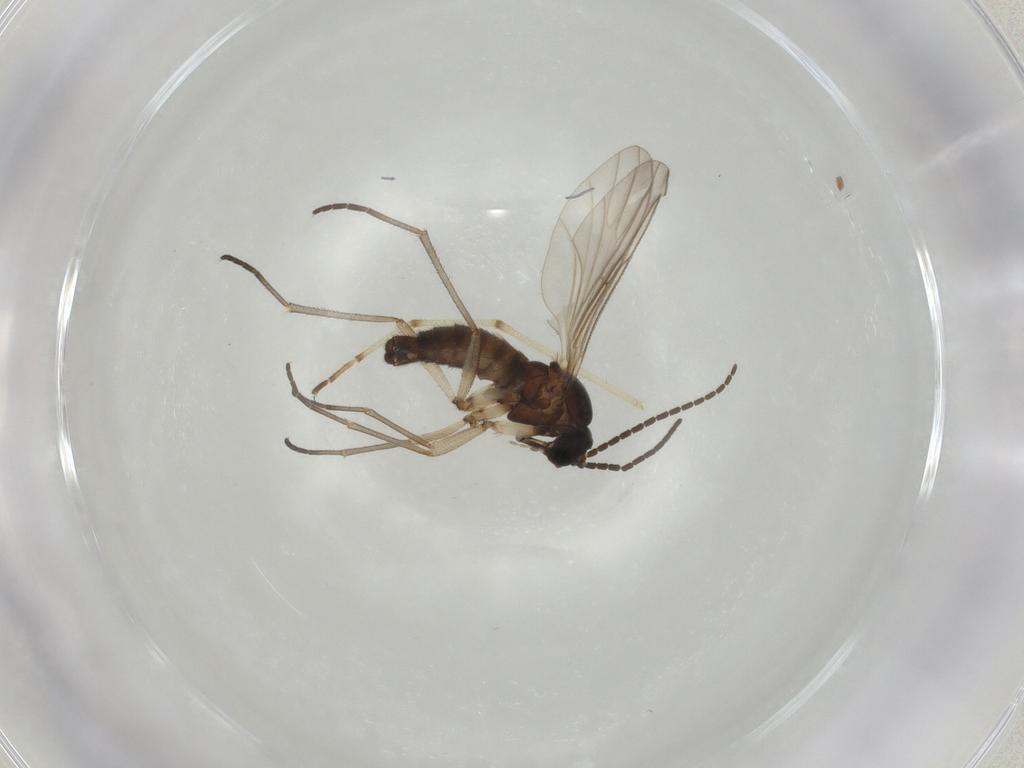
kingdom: Animalia
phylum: Arthropoda
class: Insecta
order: Diptera
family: Sciaridae
